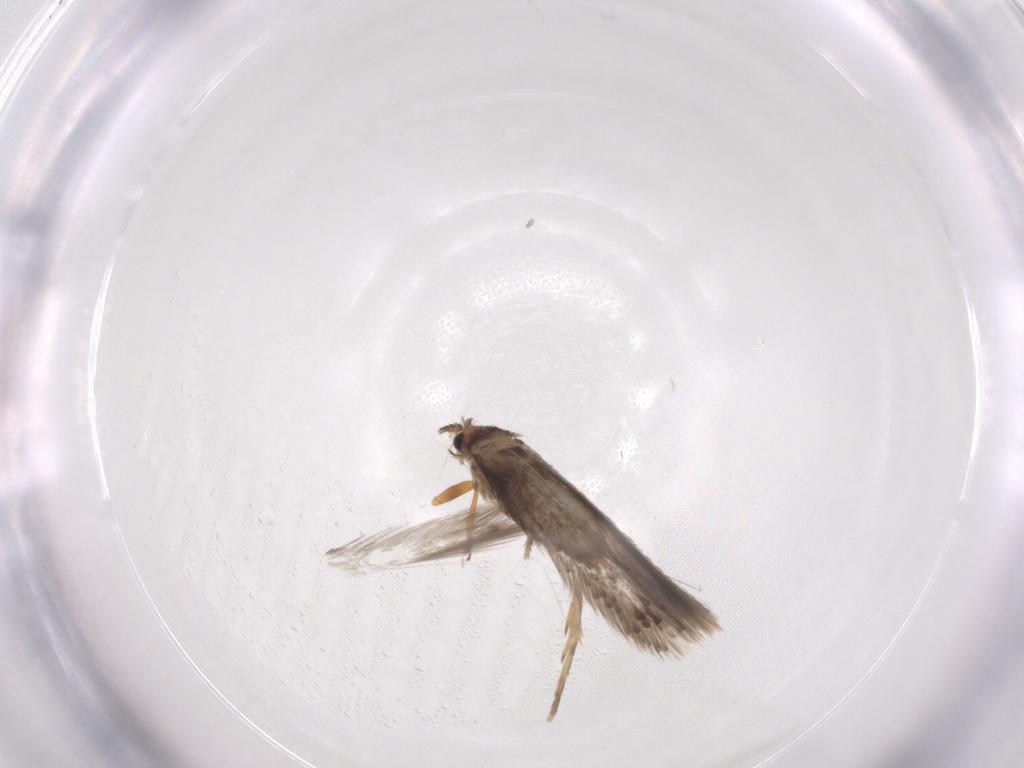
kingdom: Animalia
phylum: Arthropoda
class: Insecta
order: Lepidoptera
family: Nepticulidae
